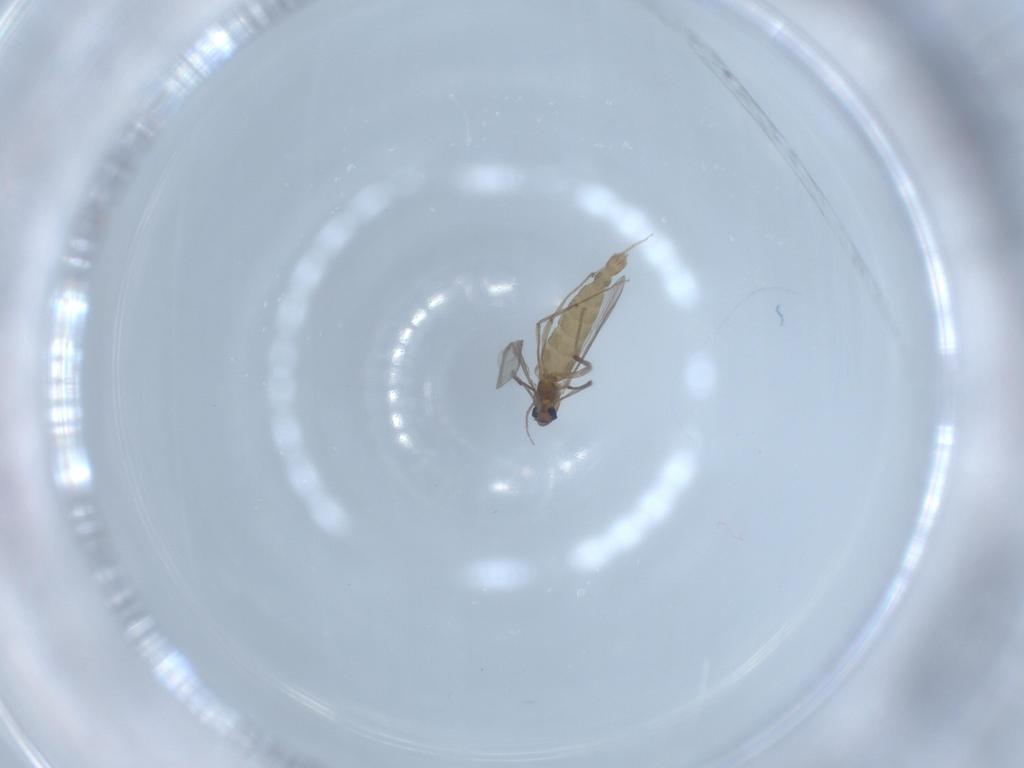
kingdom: Animalia
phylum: Arthropoda
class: Insecta
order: Diptera
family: Chironomidae
